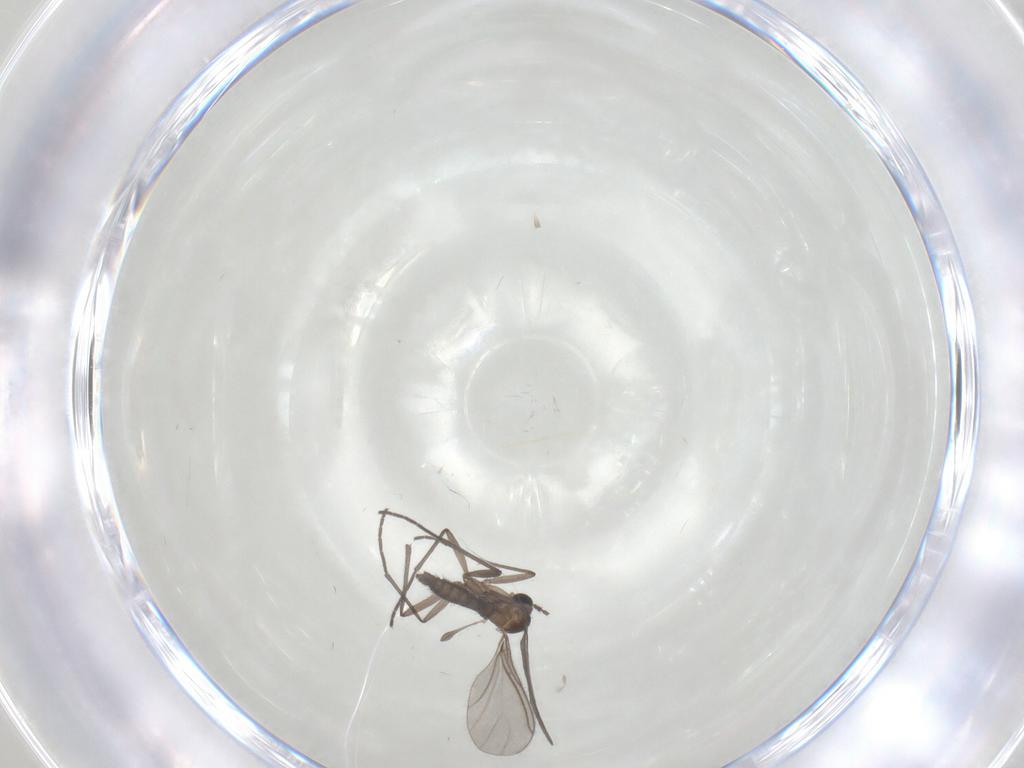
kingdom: Animalia
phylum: Arthropoda
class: Insecta
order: Diptera
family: Sciaridae
